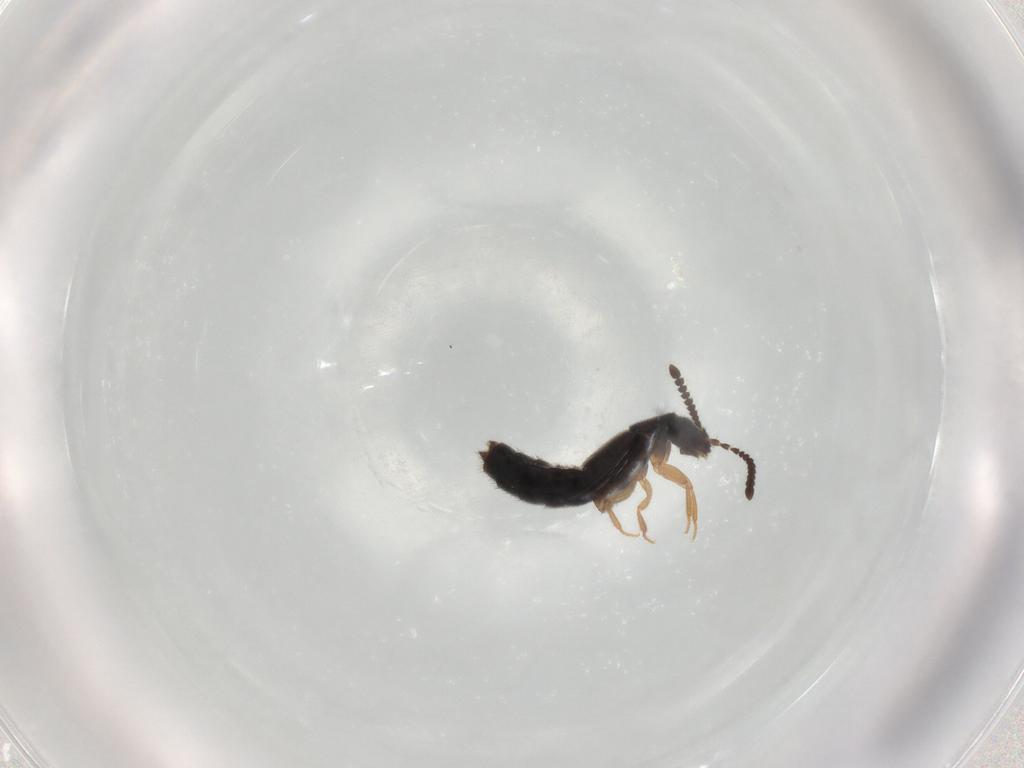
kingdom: Animalia
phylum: Arthropoda
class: Insecta
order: Coleoptera
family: Staphylinidae
